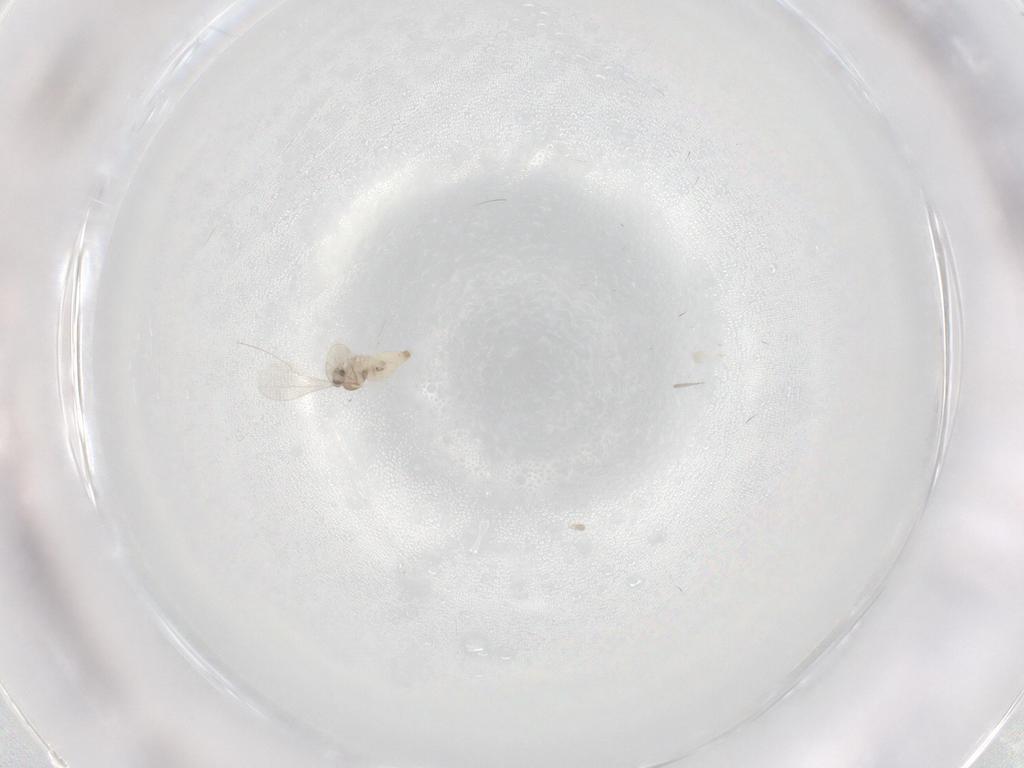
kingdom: Animalia
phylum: Arthropoda
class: Insecta
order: Diptera
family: Cecidomyiidae
